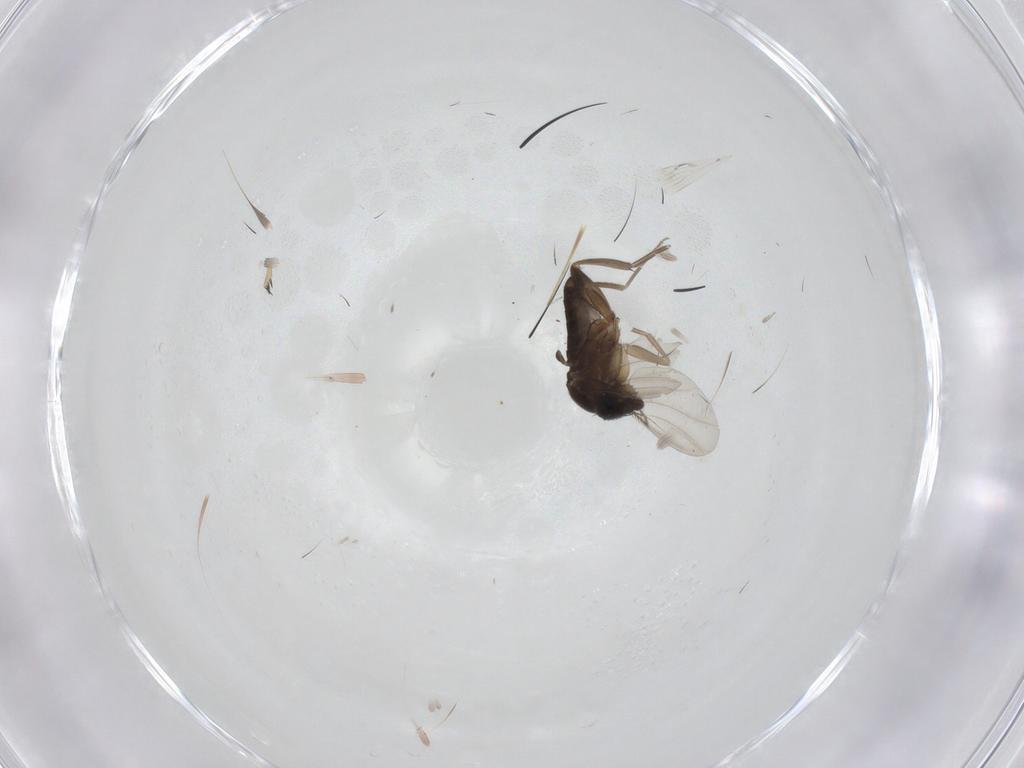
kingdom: Animalia
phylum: Arthropoda
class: Insecta
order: Diptera
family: Phoridae
